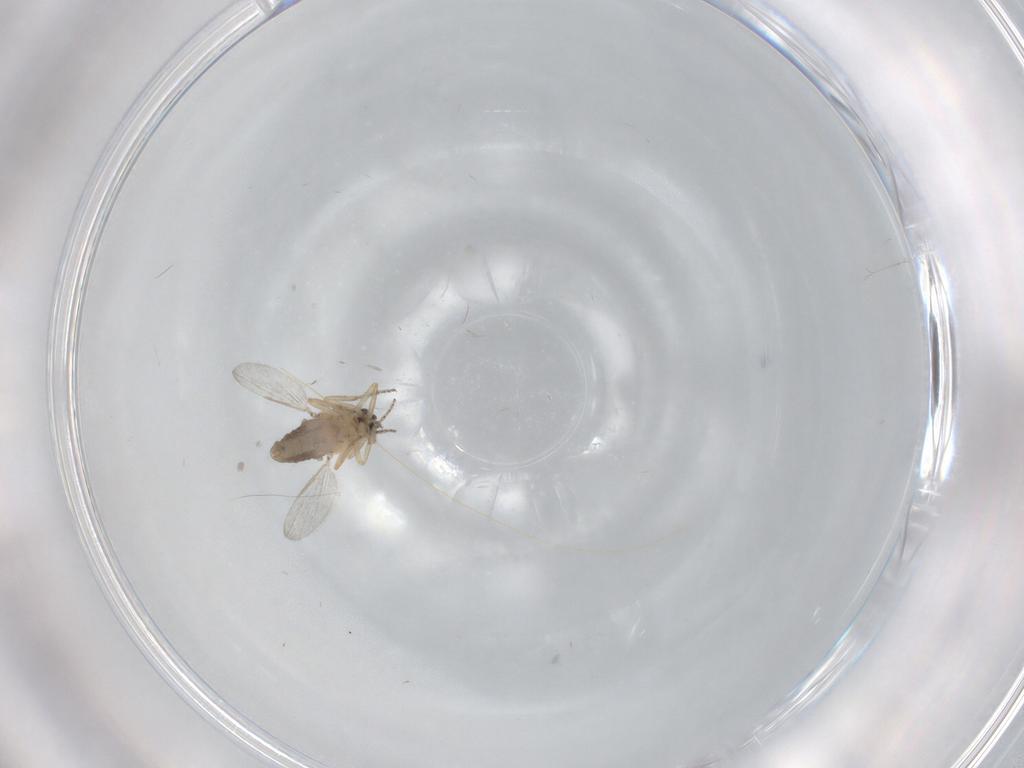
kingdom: Animalia
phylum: Arthropoda
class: Insecta
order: Diptera
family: Ceratopogonidae
